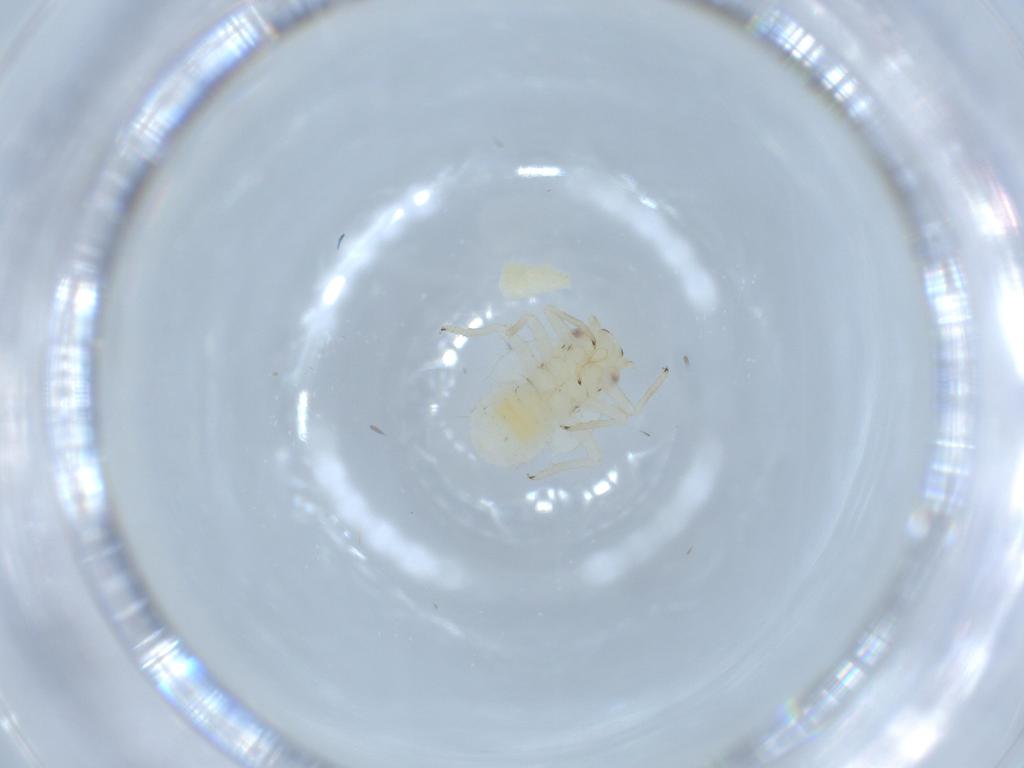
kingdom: Animalia
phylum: Arthropoda
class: Insecta
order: Hemiptera
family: Psyllidae
